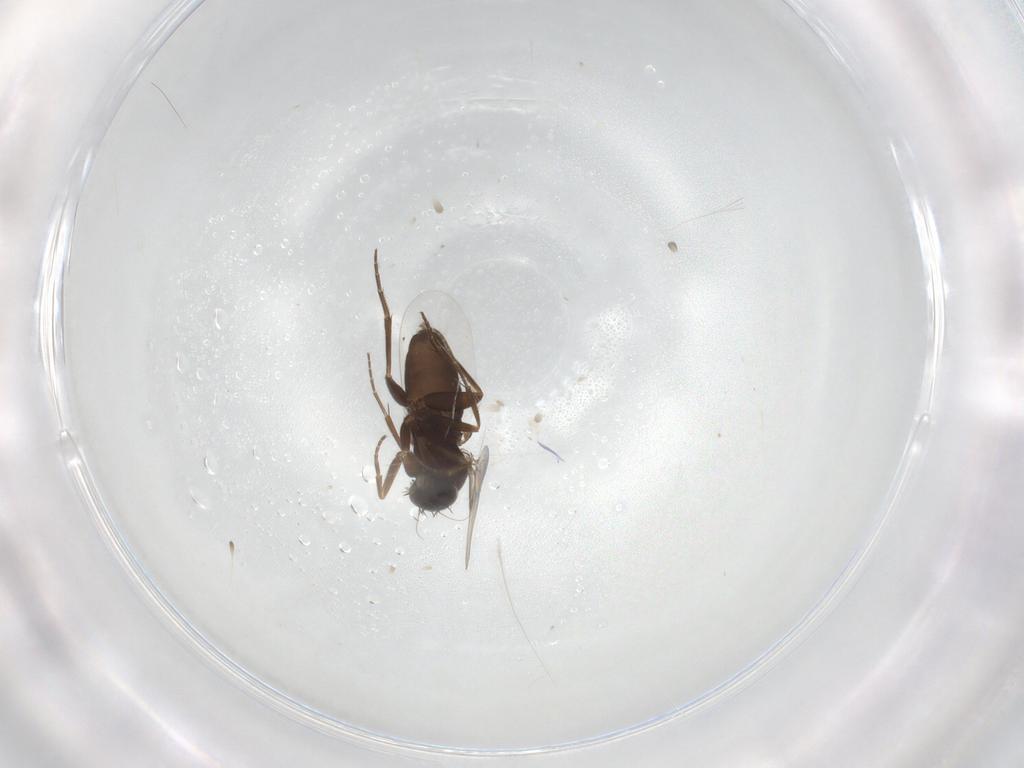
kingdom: Animalia
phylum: Arthropoda
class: Insecta
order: Diptera
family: Phoridae
